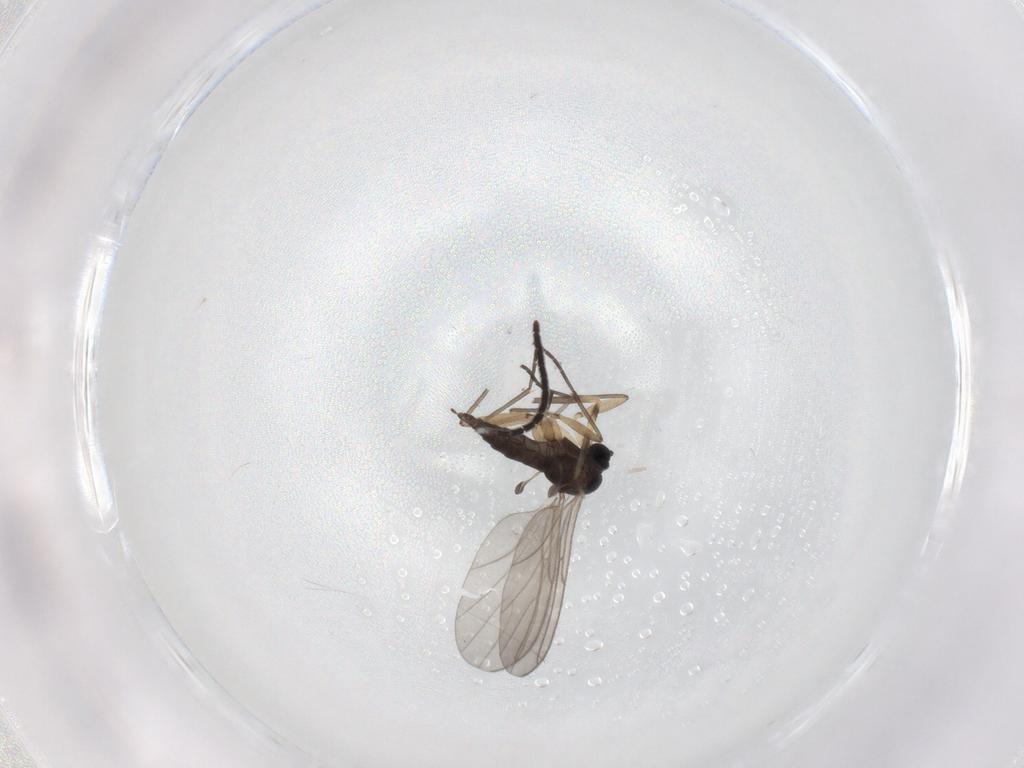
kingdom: Animalia
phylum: Arthropoda
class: Insecta
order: Diptera
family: Sciaridae
